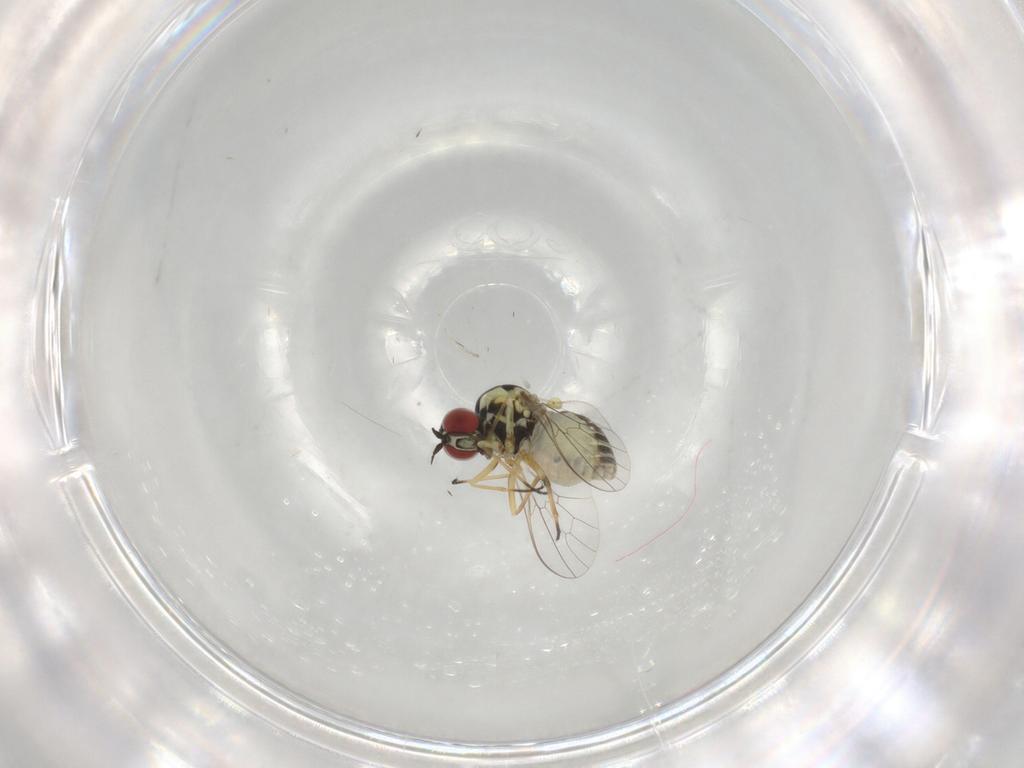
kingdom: Animalia
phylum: Arthropoda
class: Insecta
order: Diptera
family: Bombyliidae
